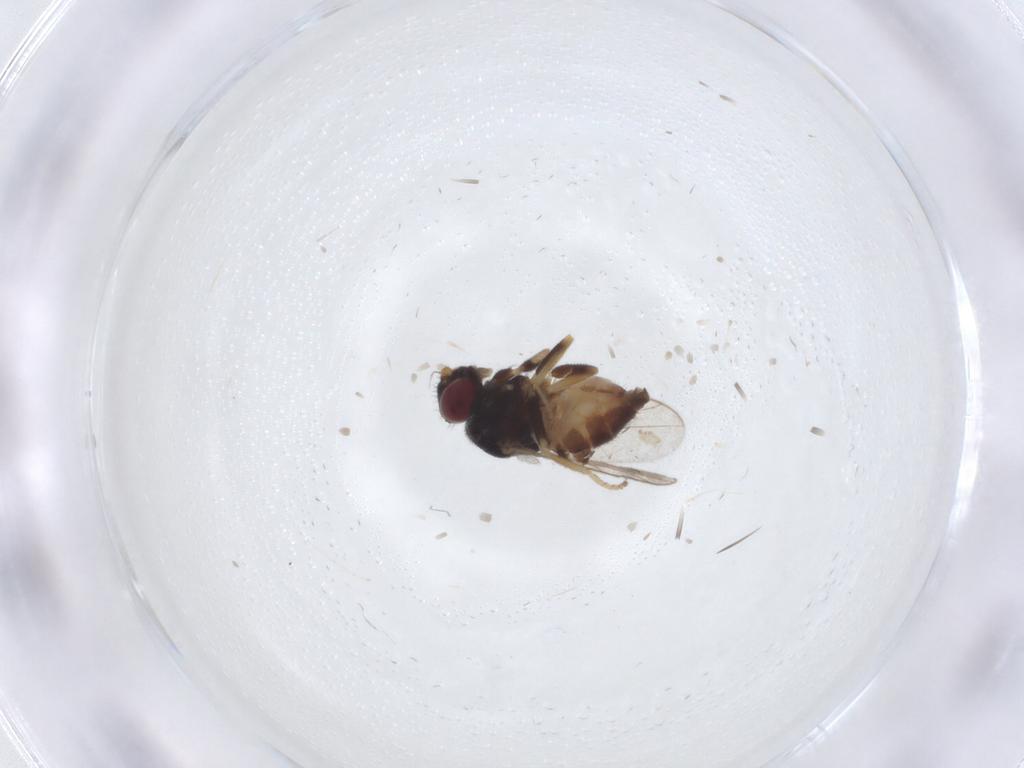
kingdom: Animalia
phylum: Arthropoda
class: Insecta
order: Diptera
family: Chloropidae
